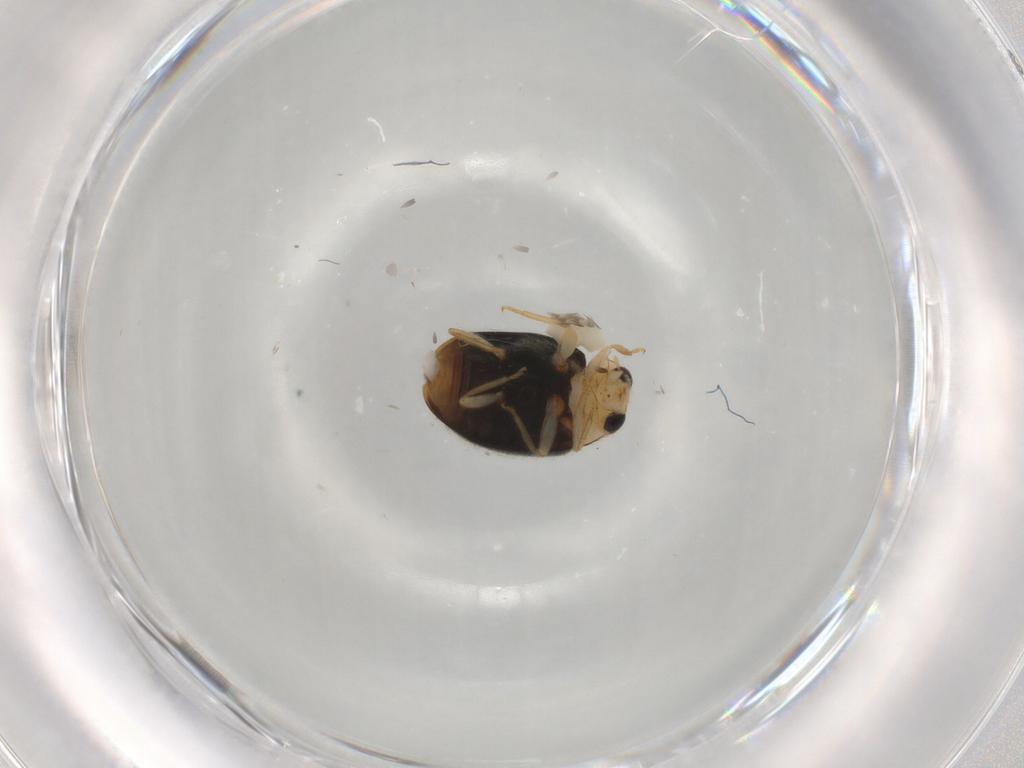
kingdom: Animalia
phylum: Arthropoda
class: Insecta
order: Coleoptera
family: Coccinellidae
